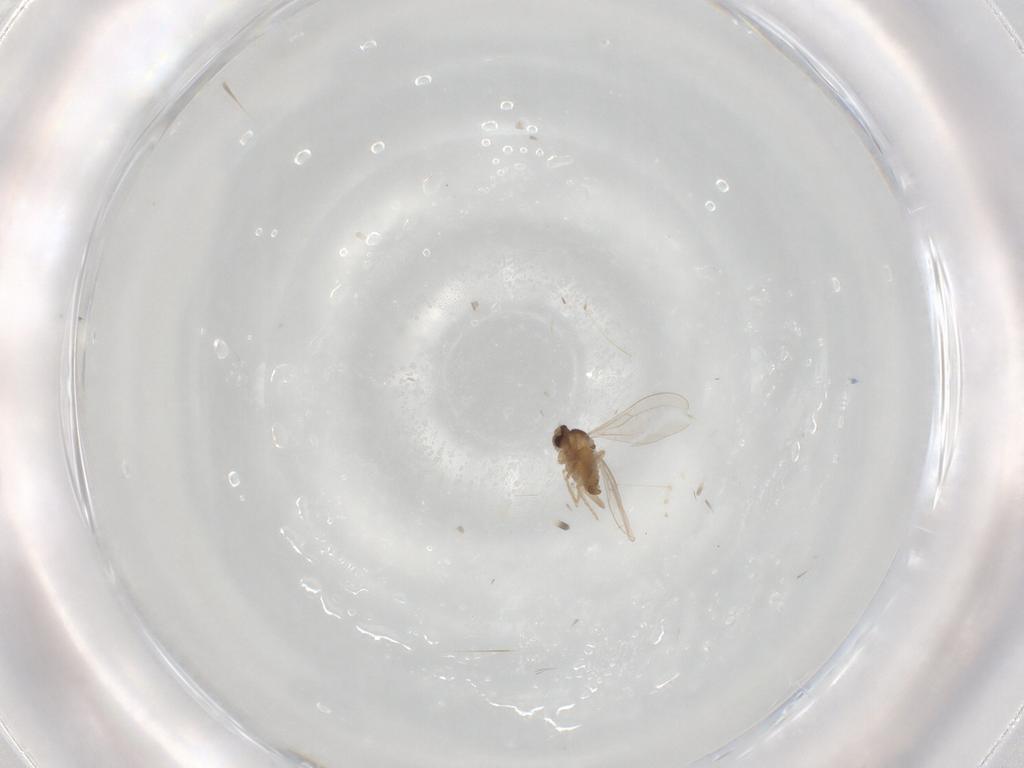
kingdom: Animalia
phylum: Arthropoda
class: Insecta
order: Diptera
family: Cecidomyiidae
